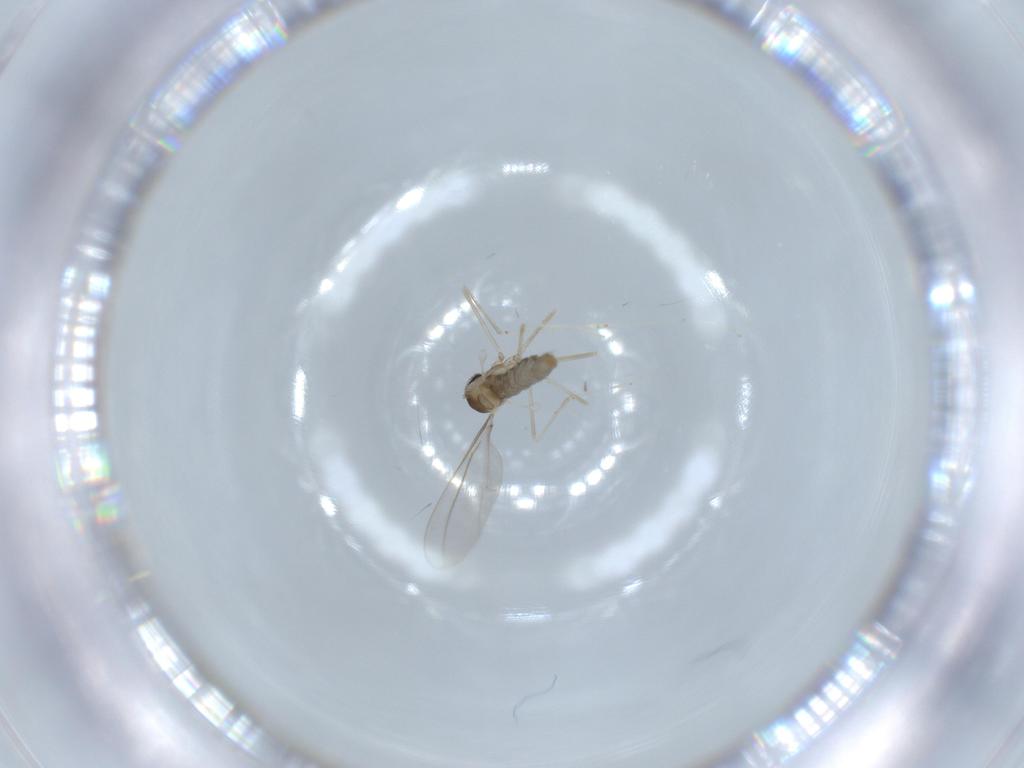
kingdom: Animalia
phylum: Arthropoda
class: Insecta
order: Diptera
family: Cecidomyiidae
